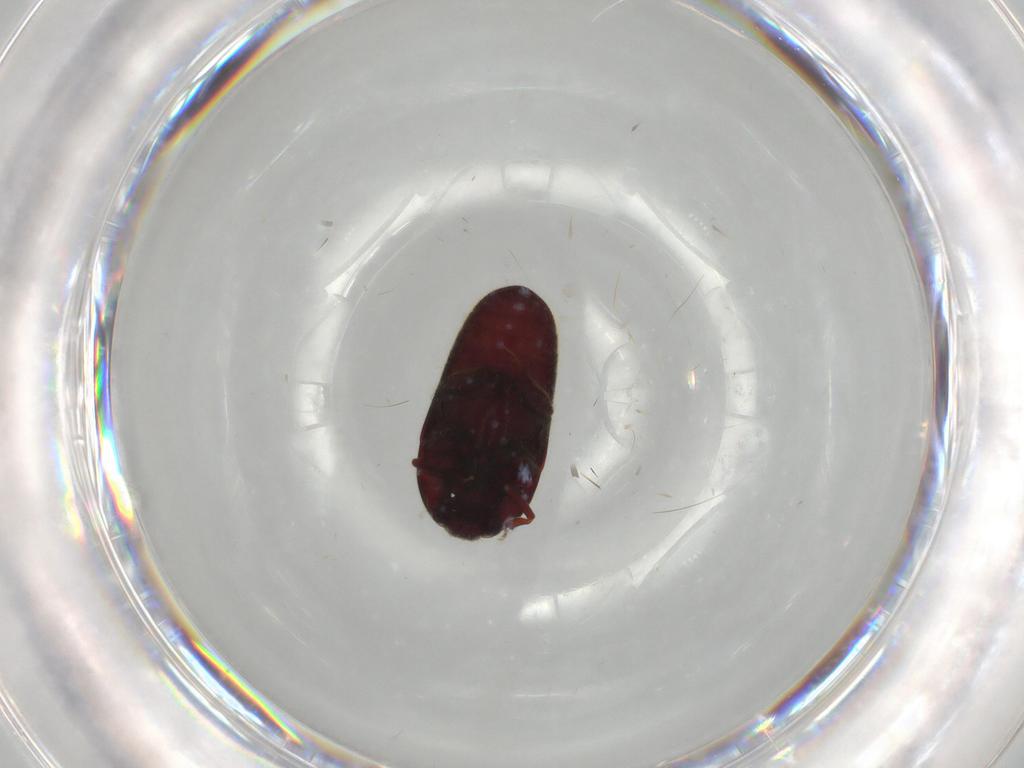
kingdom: Animalia
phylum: Arthropoda
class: Insecta
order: Coleoptera
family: Throscidae
